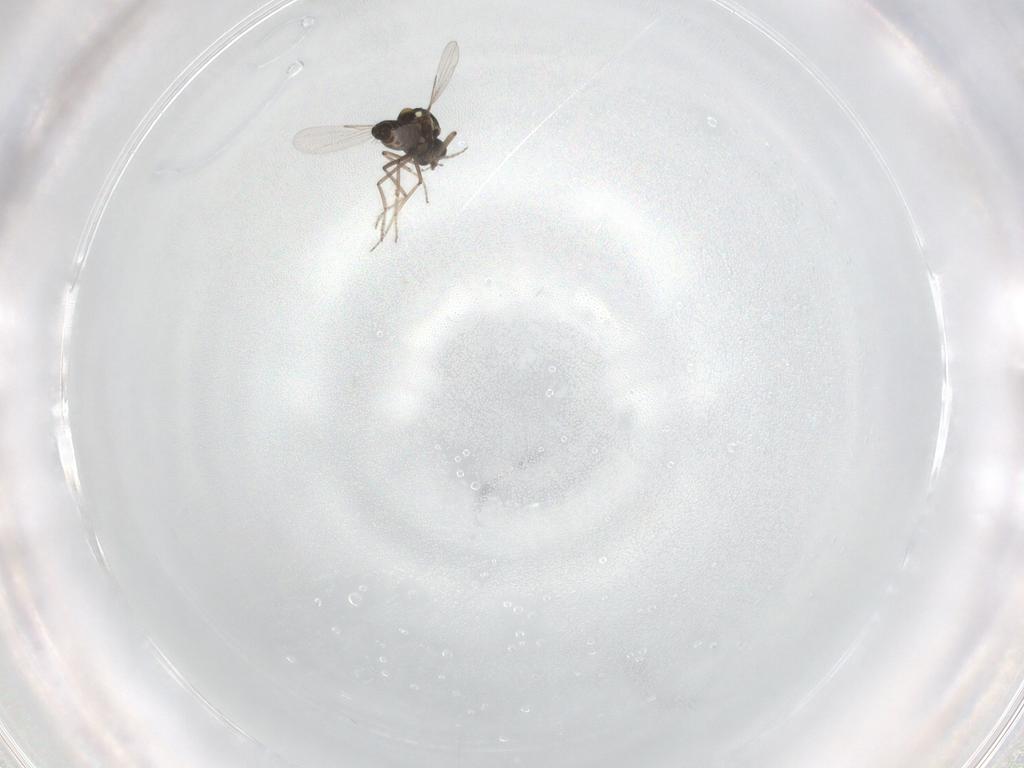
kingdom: Animalia
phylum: Arthropoda
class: Insecta
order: Diptera
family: Ceratopogonidae
